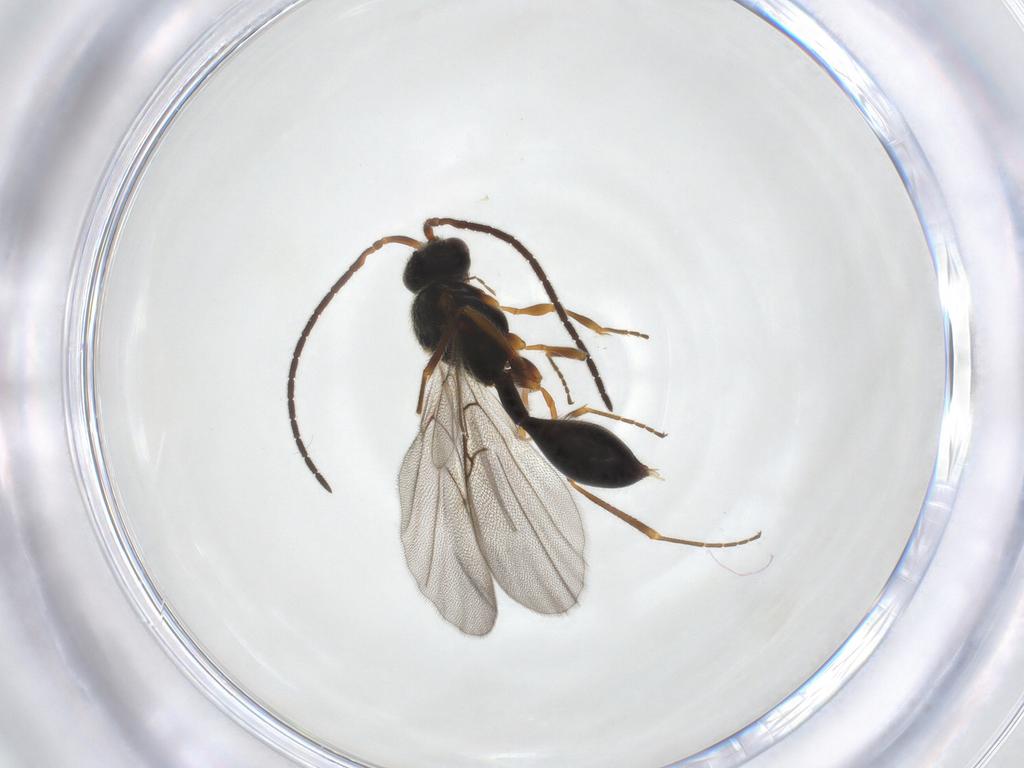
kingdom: Animalia
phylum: Arthropoda
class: Insecta
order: Hymenoptera
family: Diapriidae
